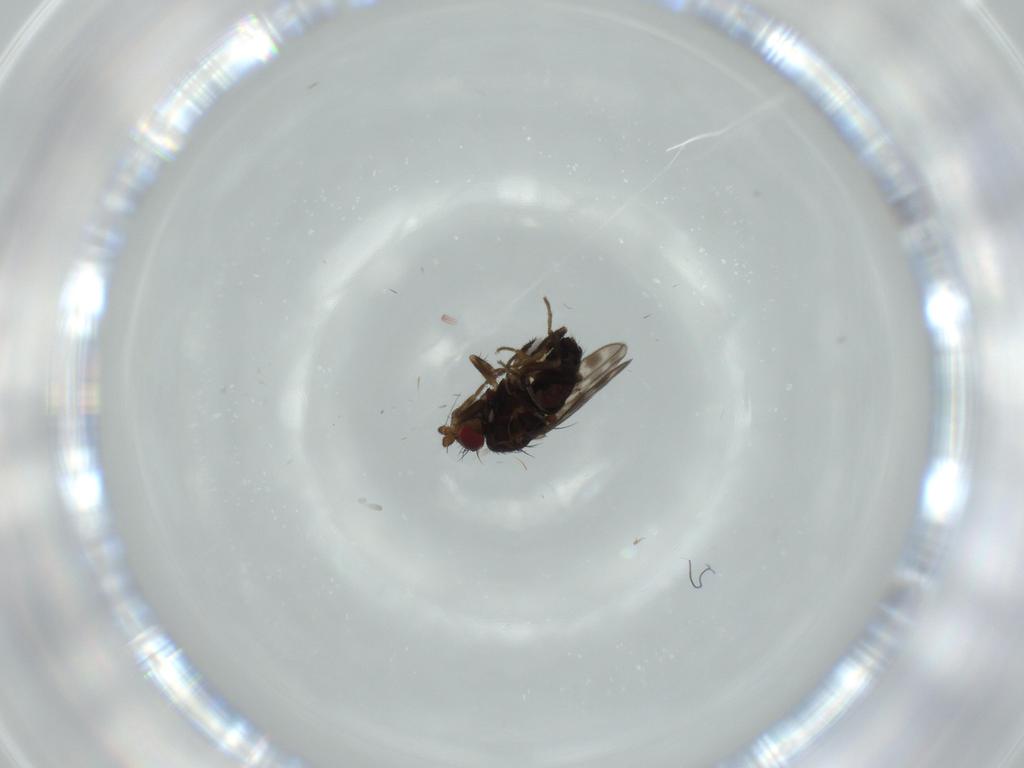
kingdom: Animalia
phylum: Arthropoda
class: Insecta
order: Diptera
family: Sphaeroceridae
